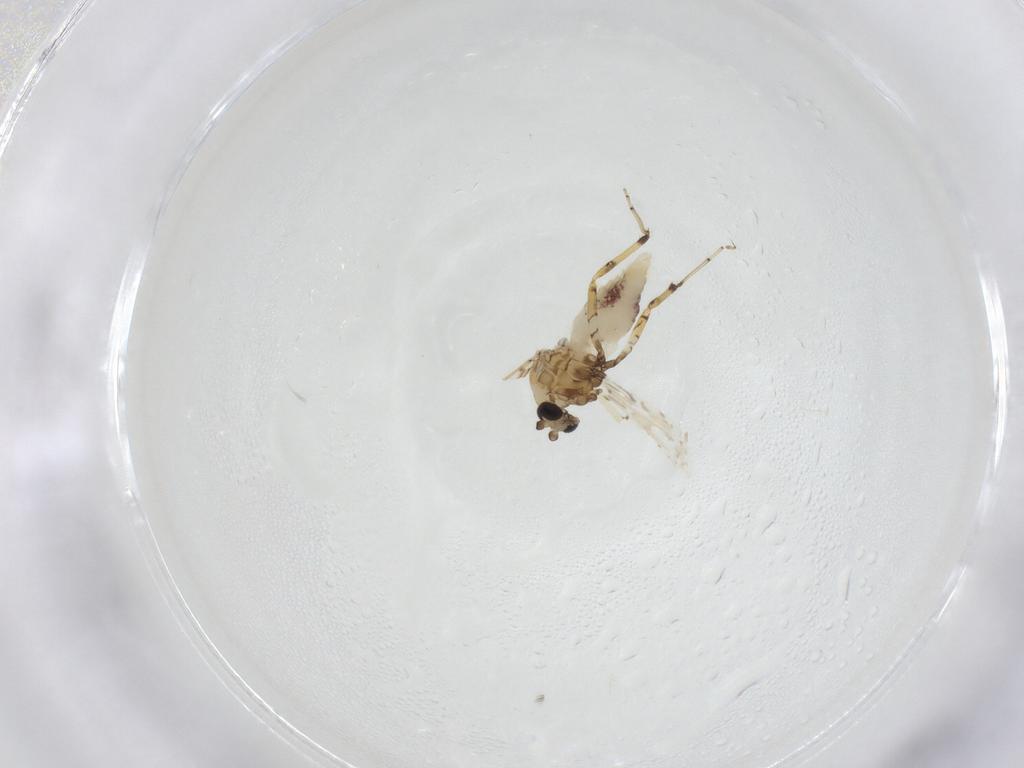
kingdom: Animalia
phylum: Arthropoda
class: Insecta
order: Diptera
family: Ceratopogonidae
